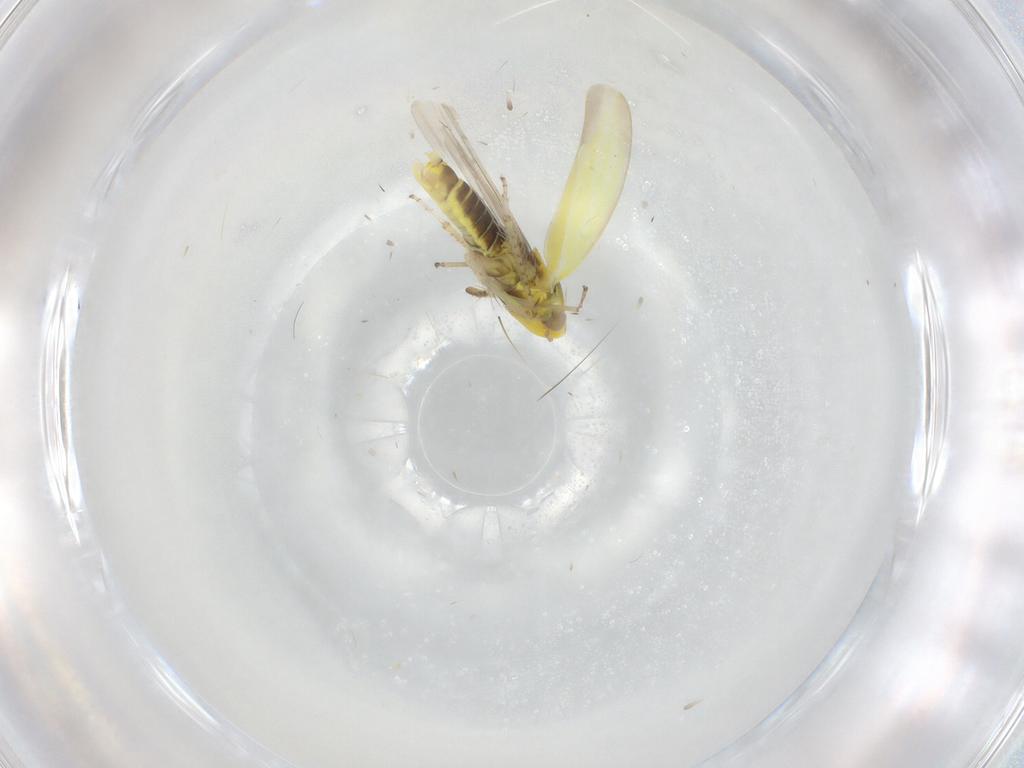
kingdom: Animalia
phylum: Arthropoda
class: Insecta
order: Hemiptera
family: Cicadellidae
